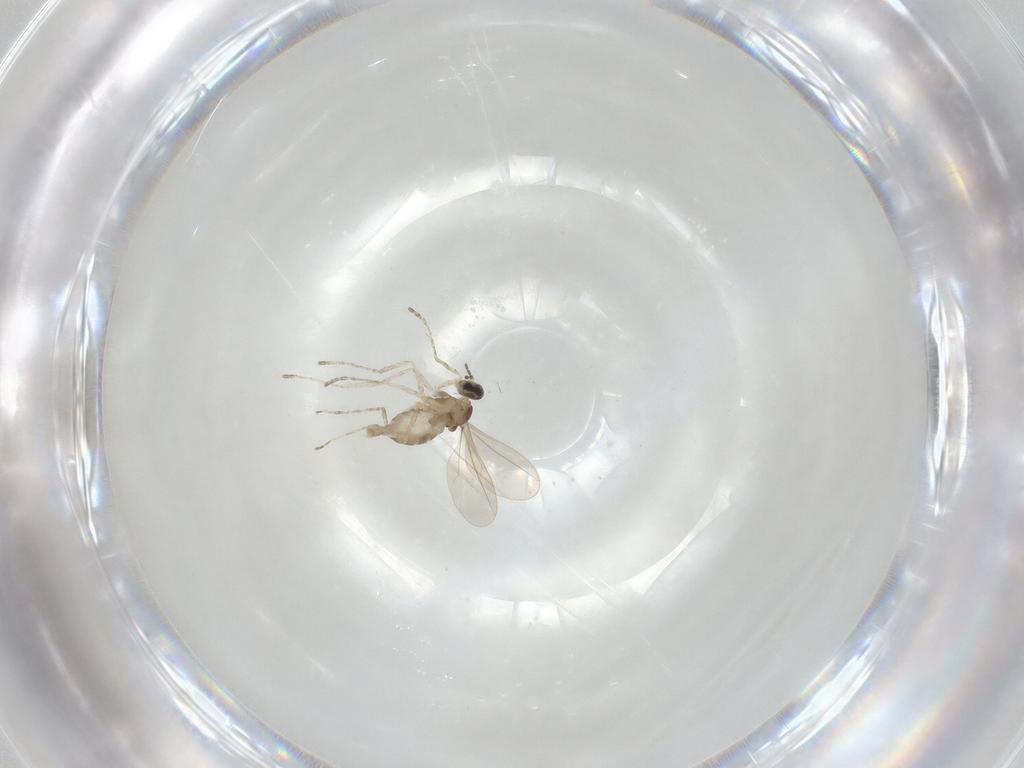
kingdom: Animalia
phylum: Arthropoda
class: Insecta
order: Diptera
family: Cecidomyiidae
